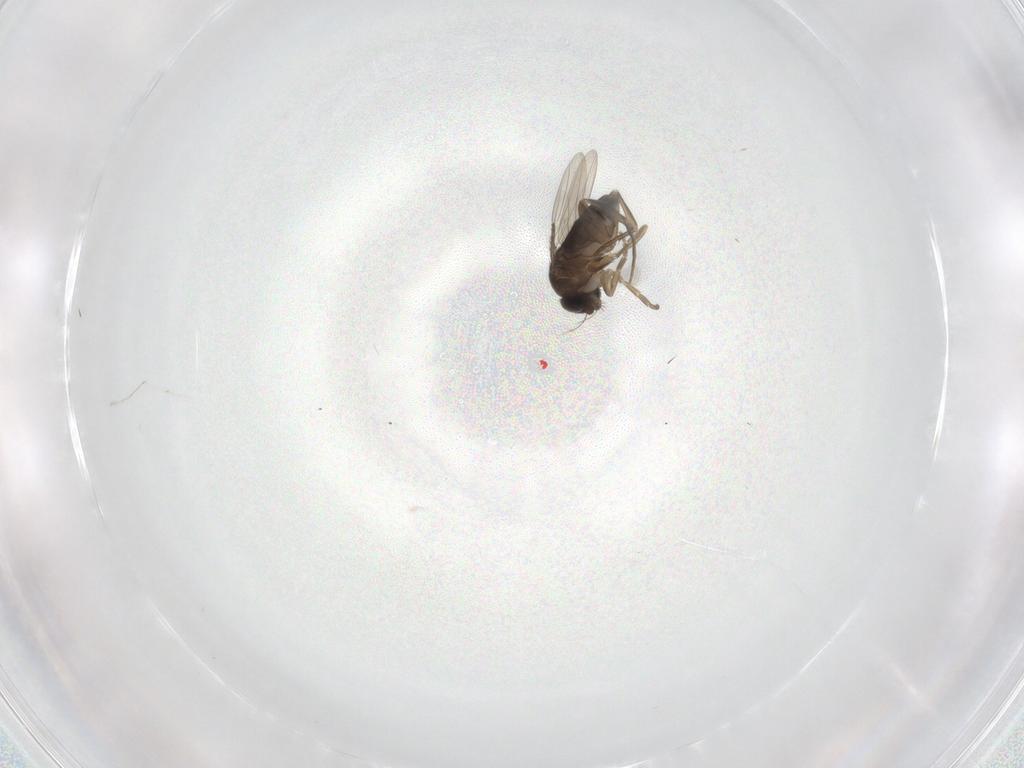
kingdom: Animalia
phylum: Arthropoda
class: Insecta
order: Diptera
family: Phoridae
